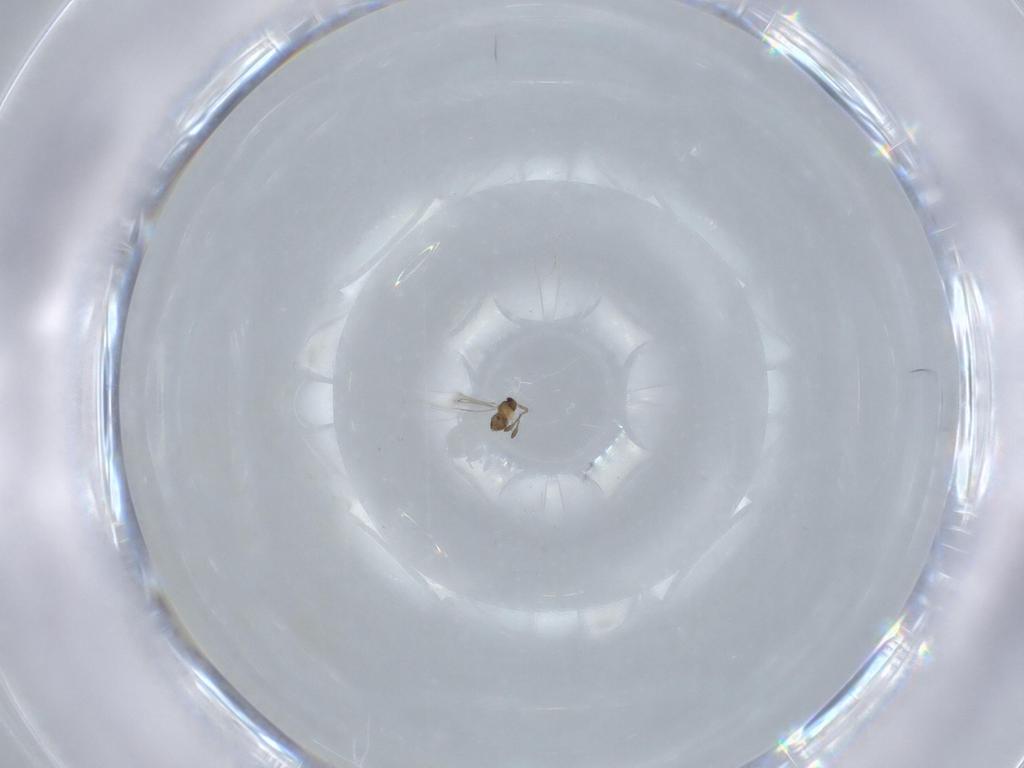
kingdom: Animalia
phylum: Arthropoda
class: Insecta
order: Hymenoptera
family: Mymaridae
